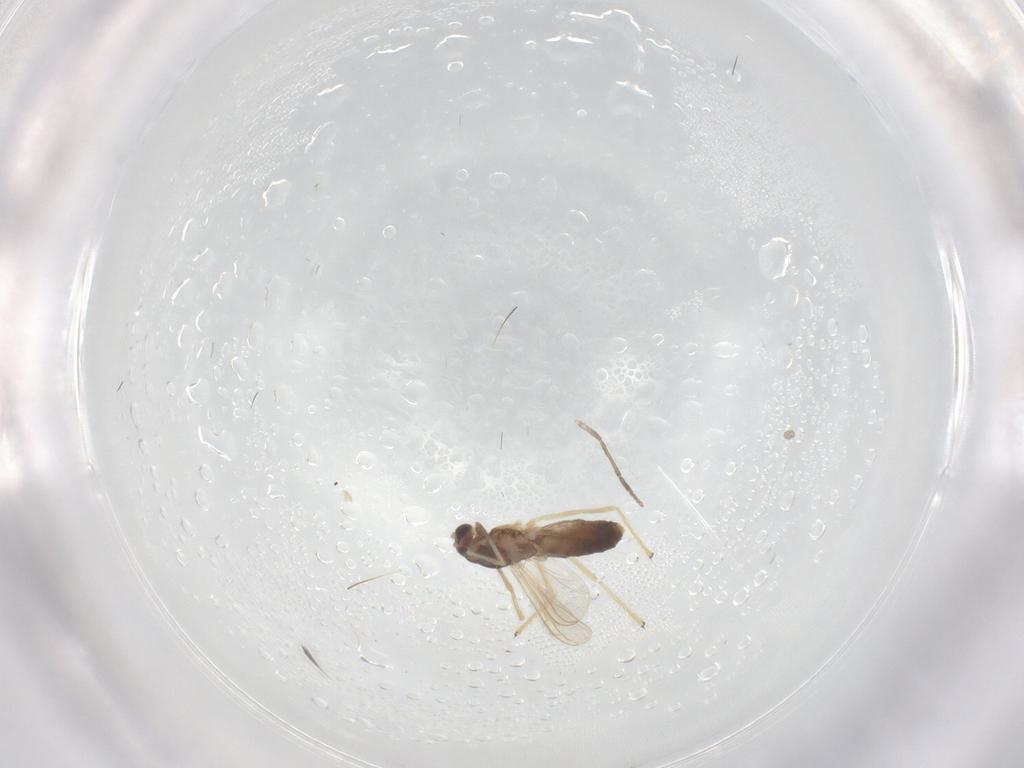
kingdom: Animalia
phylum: Arthropoda
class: Insecta
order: Diptera
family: Chironomidae
